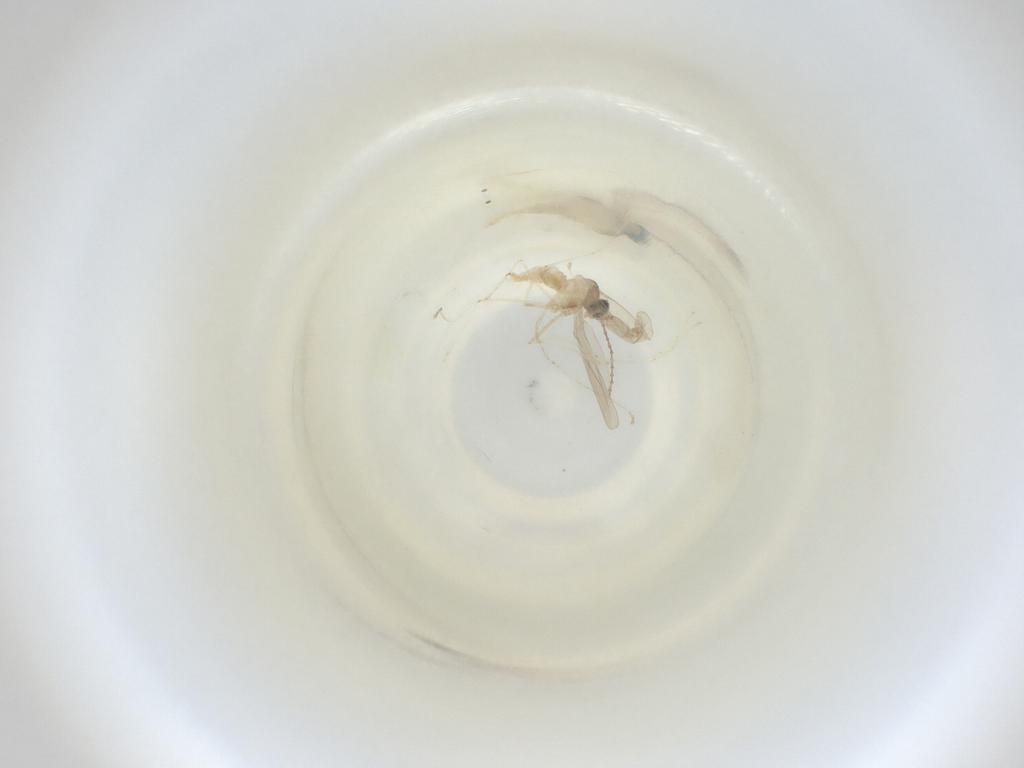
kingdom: Animalia
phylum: Arthropoda
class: Insecta
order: Diptera
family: Cecidomyiidae
